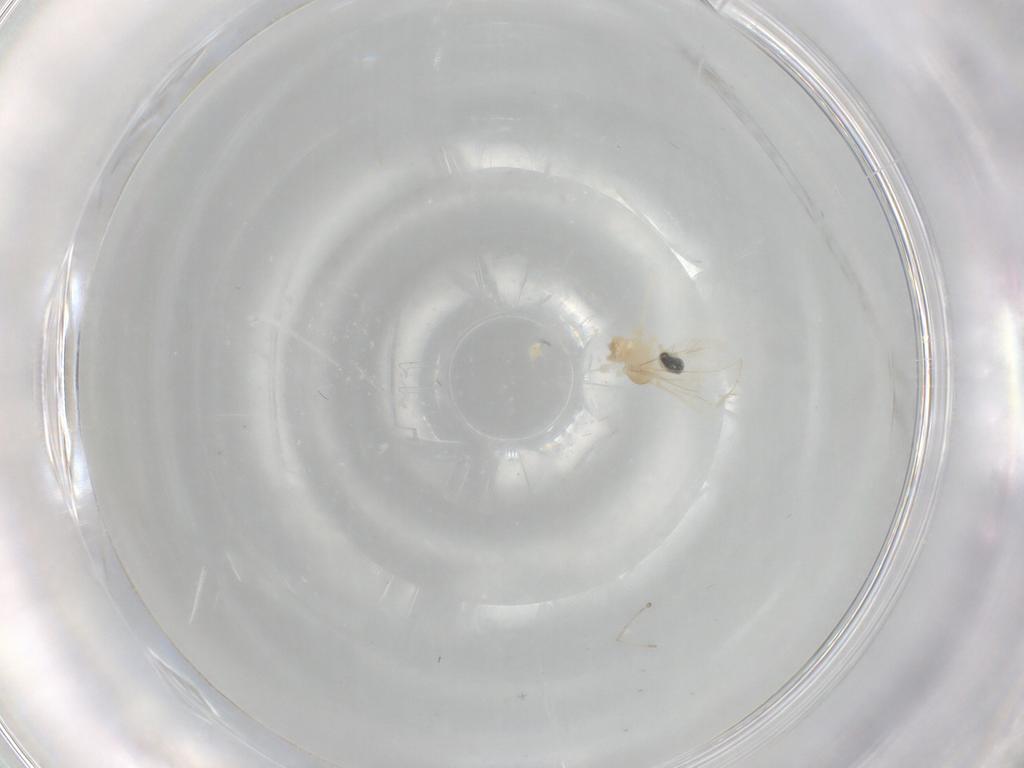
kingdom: Animalia
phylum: Arthropoda
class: Insecta
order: Diptera
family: Cecidomyiidae
